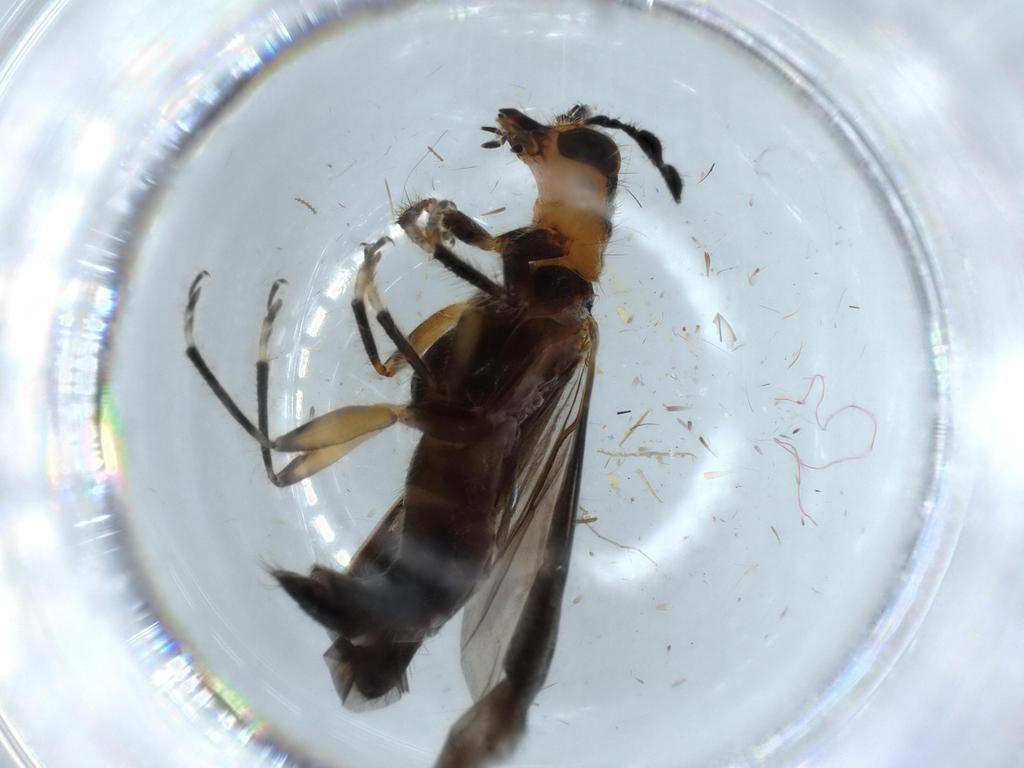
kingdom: Animalia
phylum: Arthropoda
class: Insecta
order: Coleoptera
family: Cleridae
